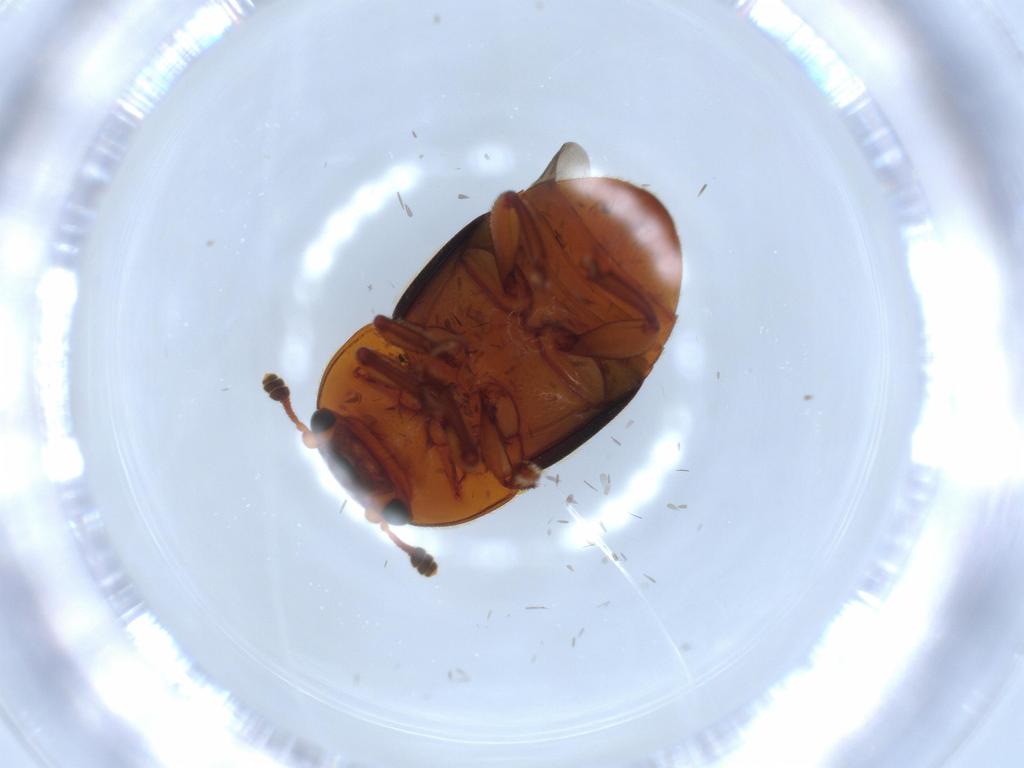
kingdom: Animalia
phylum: Arthropoda
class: Insecta
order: Coleoptera
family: Nitidulidae
